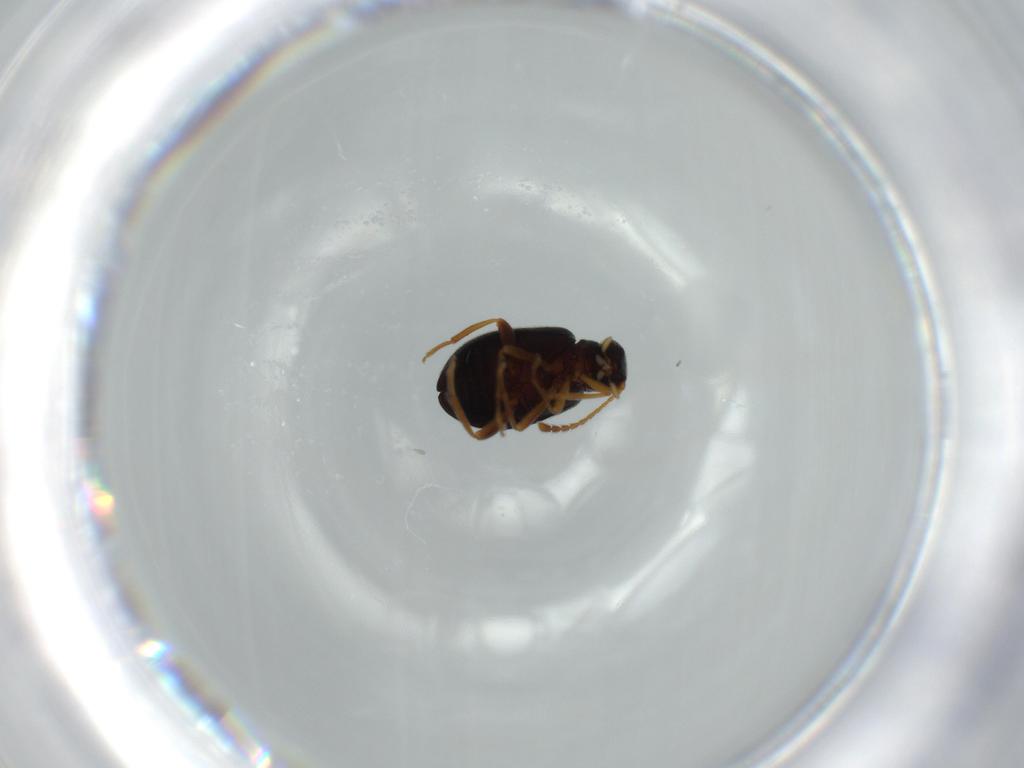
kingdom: Animalia
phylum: Arthropoda
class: Insecta
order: Coleoptera
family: Aderidae
